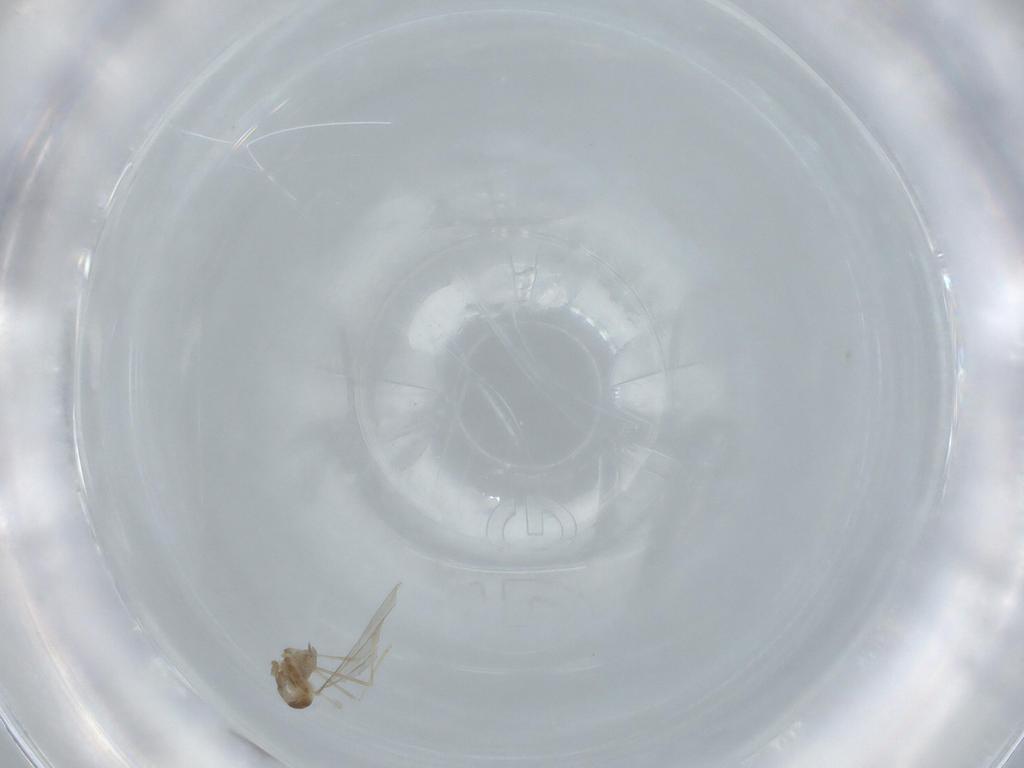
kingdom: Animalia
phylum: Arthropoda
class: Insecta
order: Diptera
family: Cecidomyiidae
